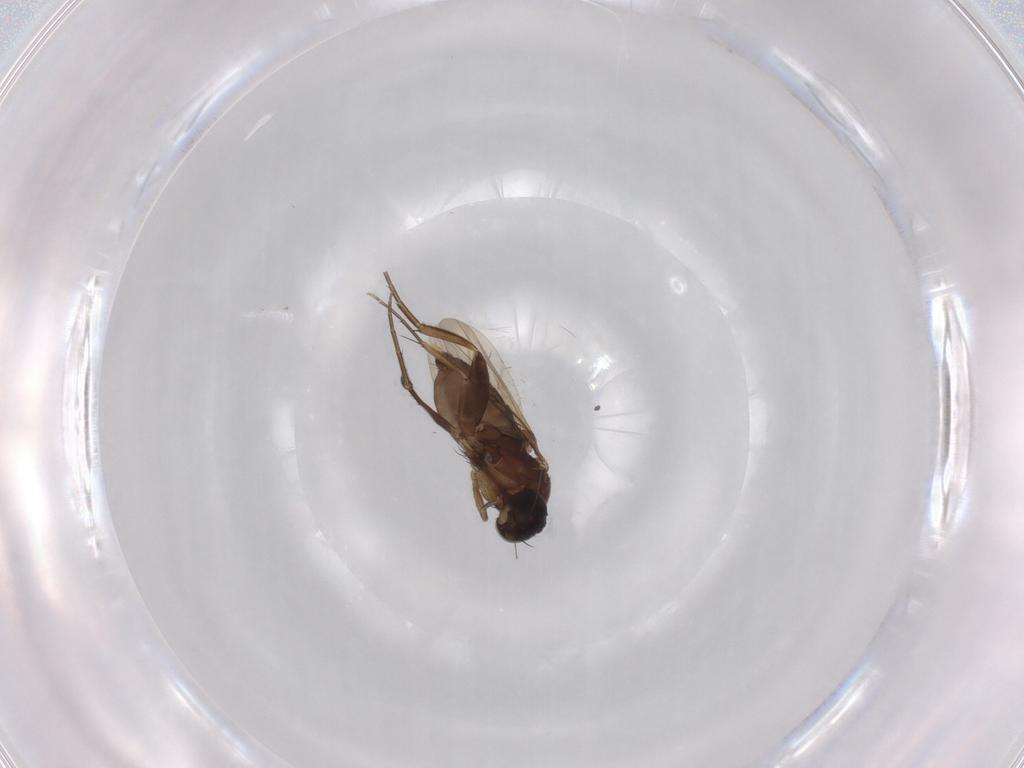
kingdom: Animalia
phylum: Arthropoda
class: Insecta
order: Diptera
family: Phoridae
